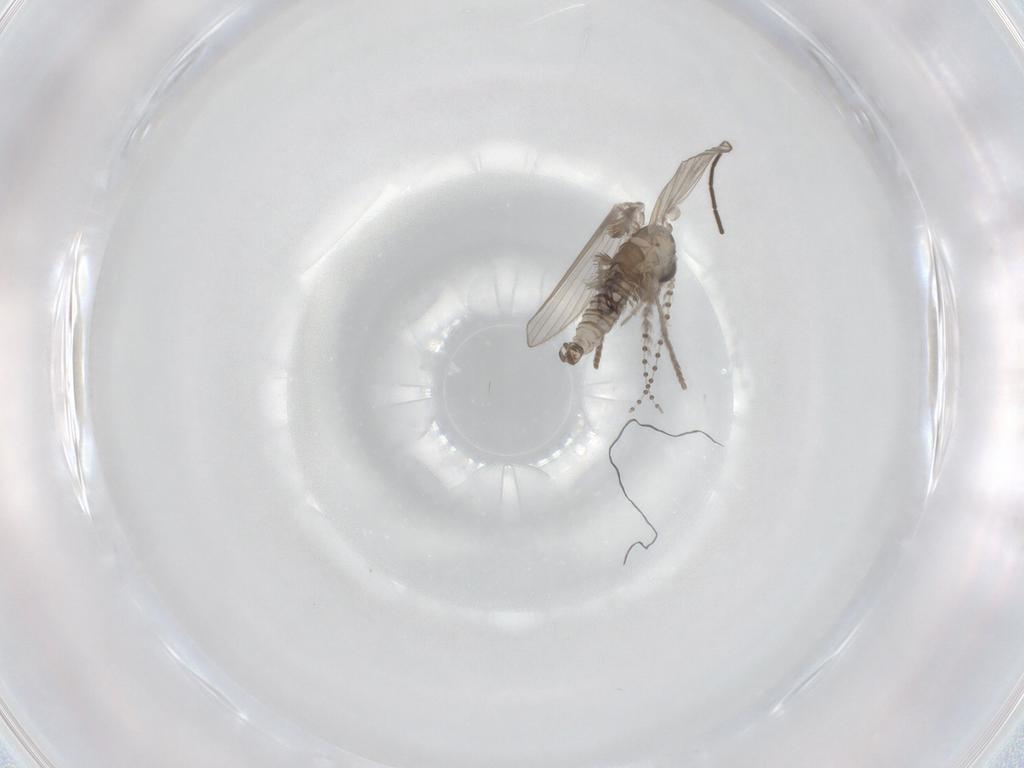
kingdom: Animalia
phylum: Arthropoda
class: Insecta
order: Diptera
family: Psychodidae
